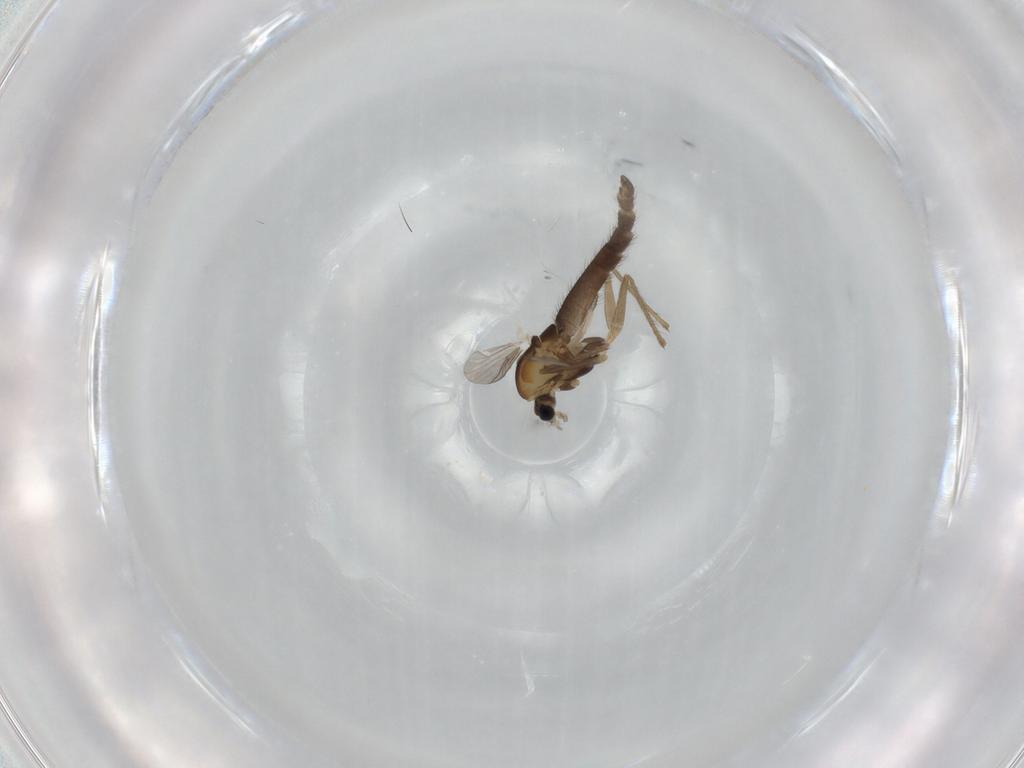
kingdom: Animalia
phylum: Arthropoda
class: Insecta
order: Diptera
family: Chironomidae
